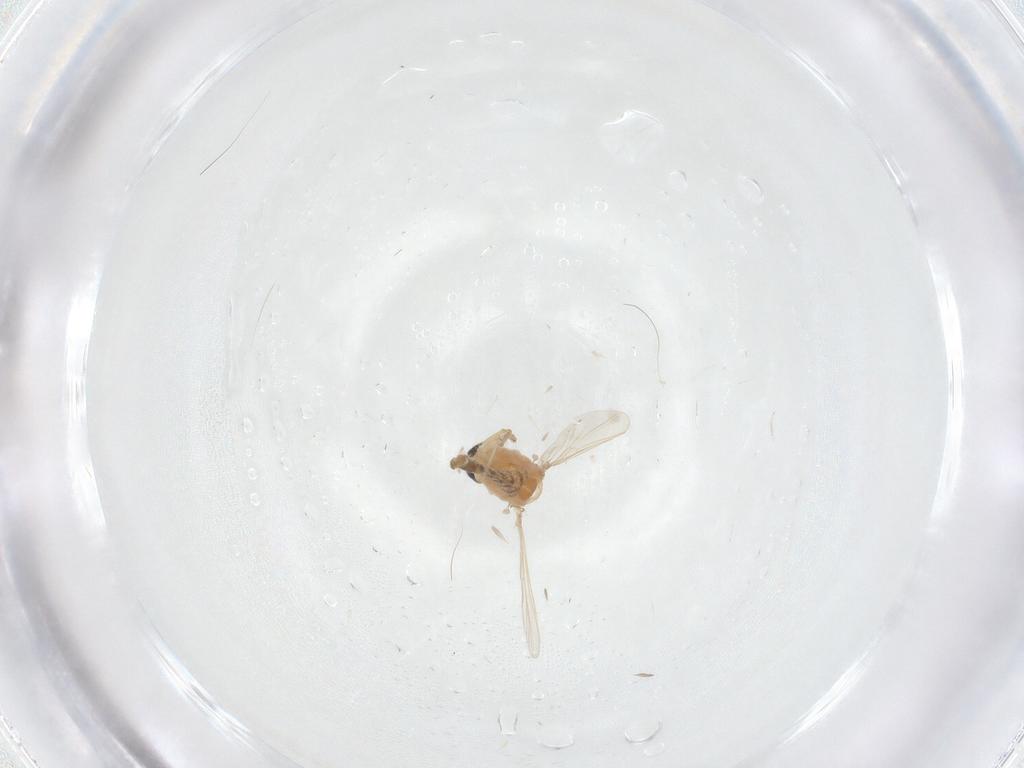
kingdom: Animalia
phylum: Arthropoda
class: Insecta
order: Diptera
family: Chironomidae
